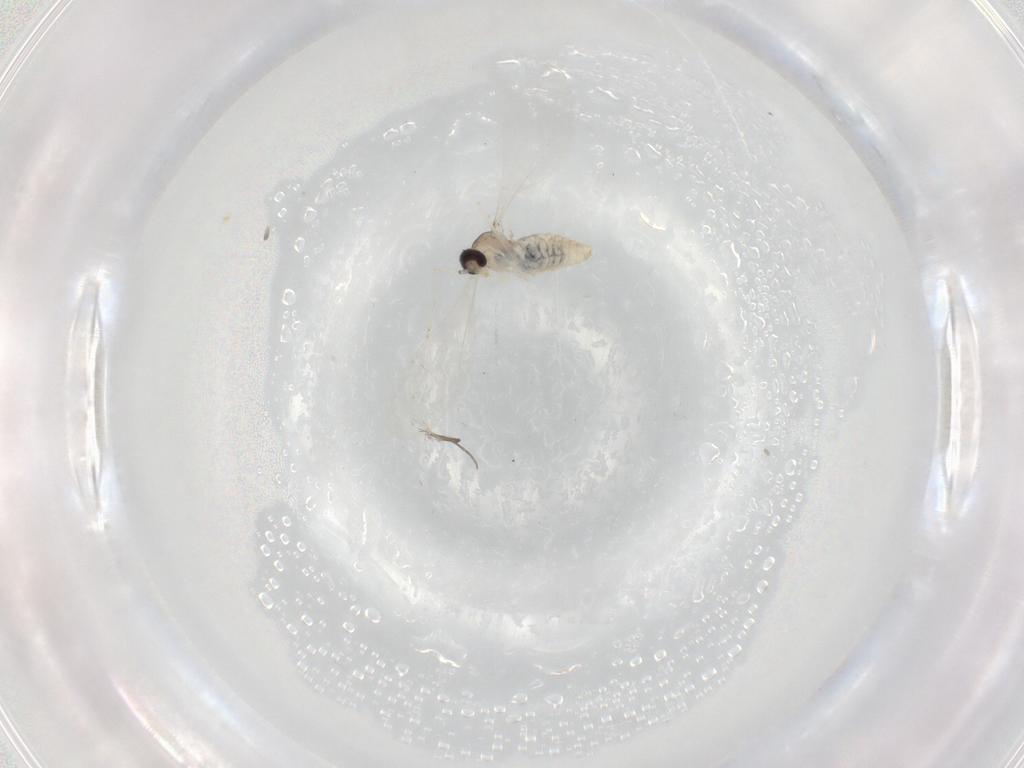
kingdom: Animalia
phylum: Arthropoda
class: Insecta
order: Diptera
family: Cecidomyiidae
